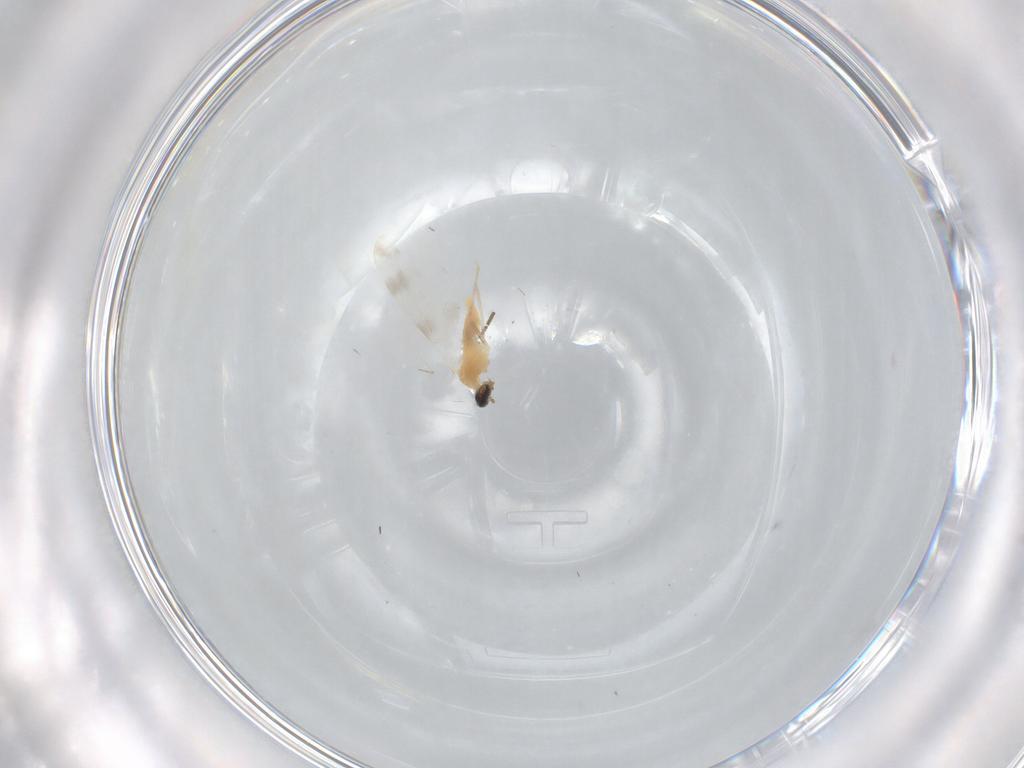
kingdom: Animalia
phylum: Arthropoda
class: Insecta
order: Diptera
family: Cecidomyiidae
